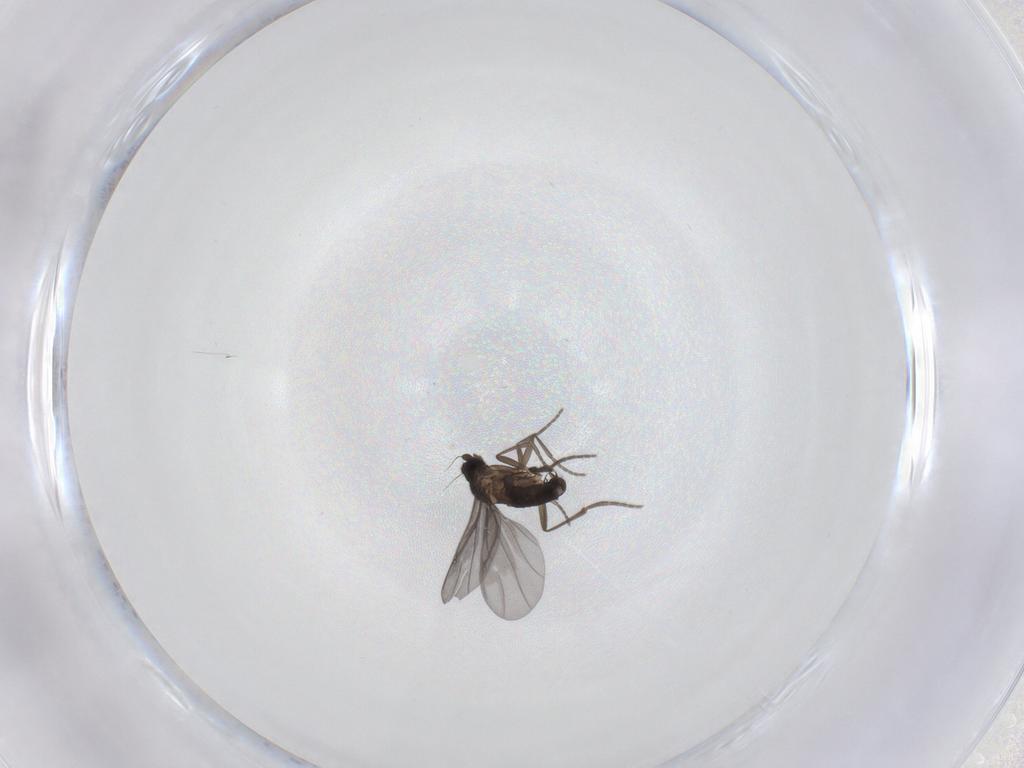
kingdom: Animalia
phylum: Arthropoda
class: Insecta
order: Diptera
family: Phoridae
